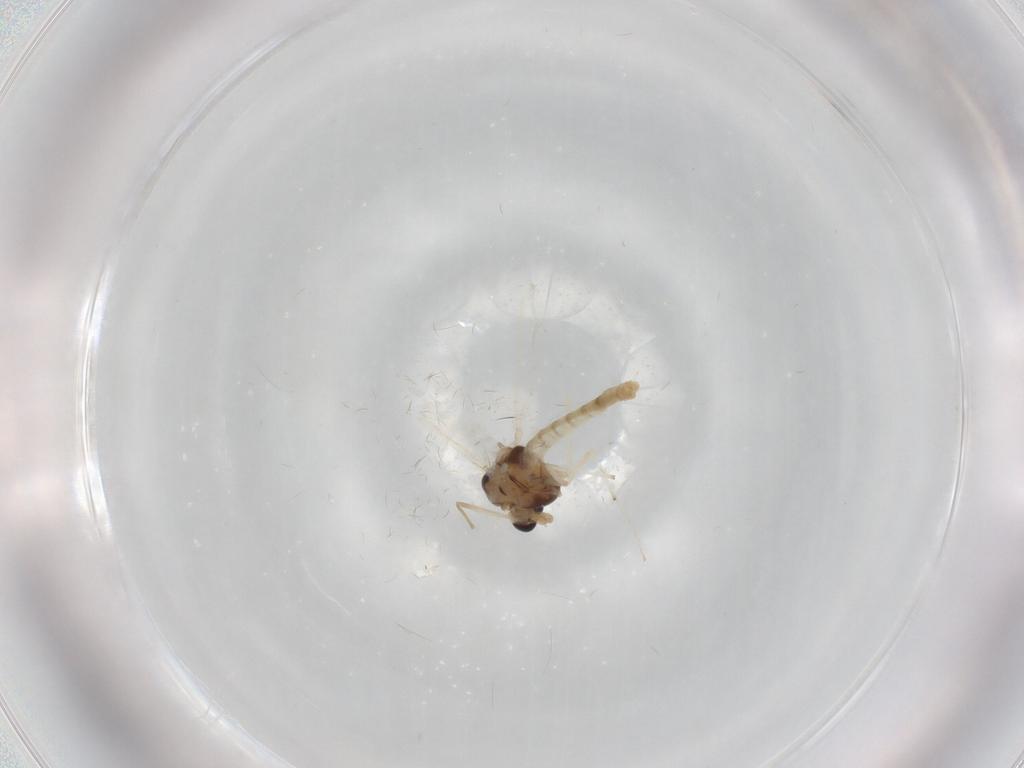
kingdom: Animalia
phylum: Arthropoda
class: Insecta
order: Diptera
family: Chironomidae
